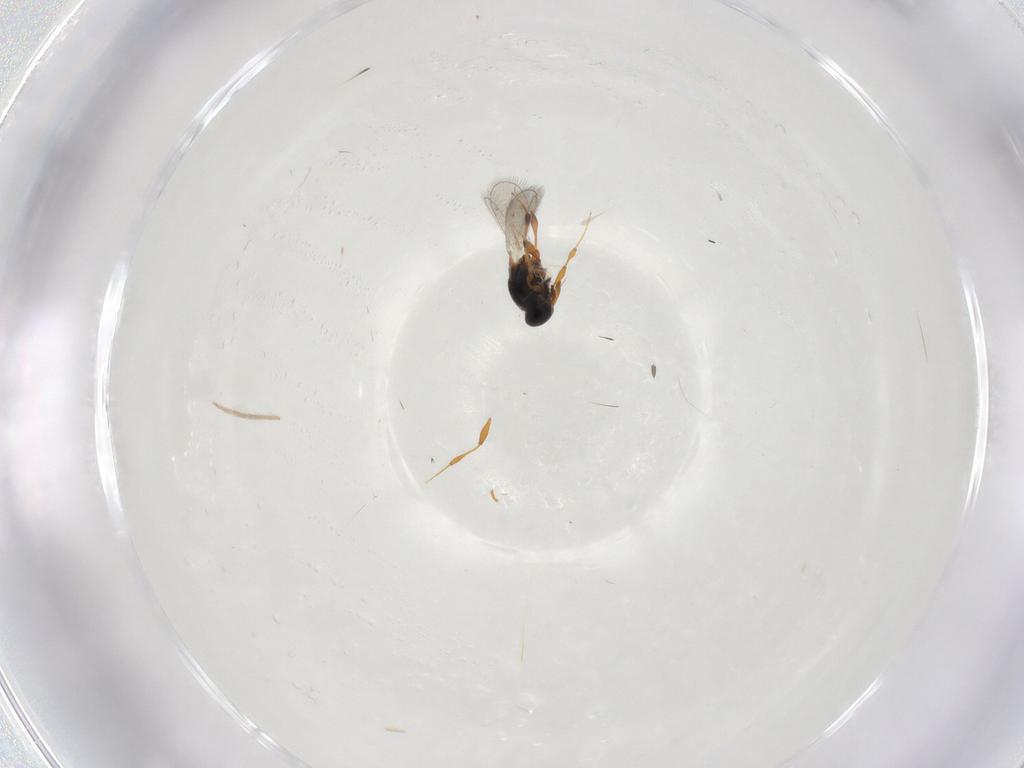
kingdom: Animalia
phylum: Arthropoda
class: Insecta
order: Hymenoptera
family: Platygastridae
